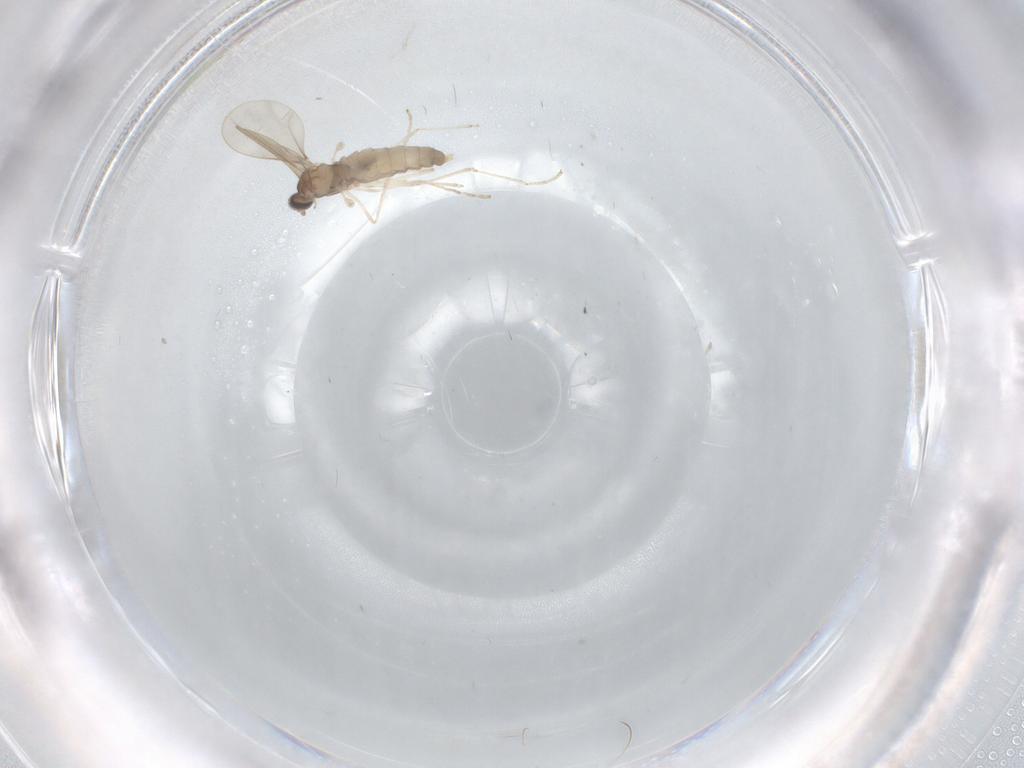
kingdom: Animalia
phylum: Arthropoda
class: Insecta
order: Diptera
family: Cecidomyiidae
